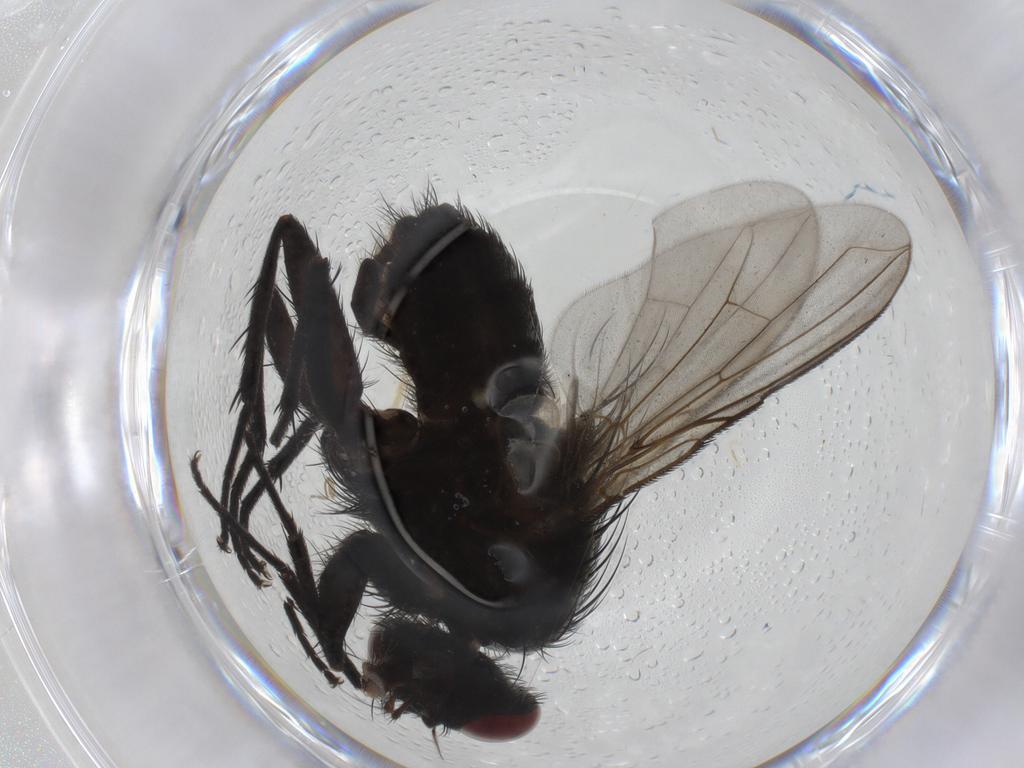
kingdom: Animalia
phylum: Arthropoda
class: Insecta
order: Diptera
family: Calliphoridae
